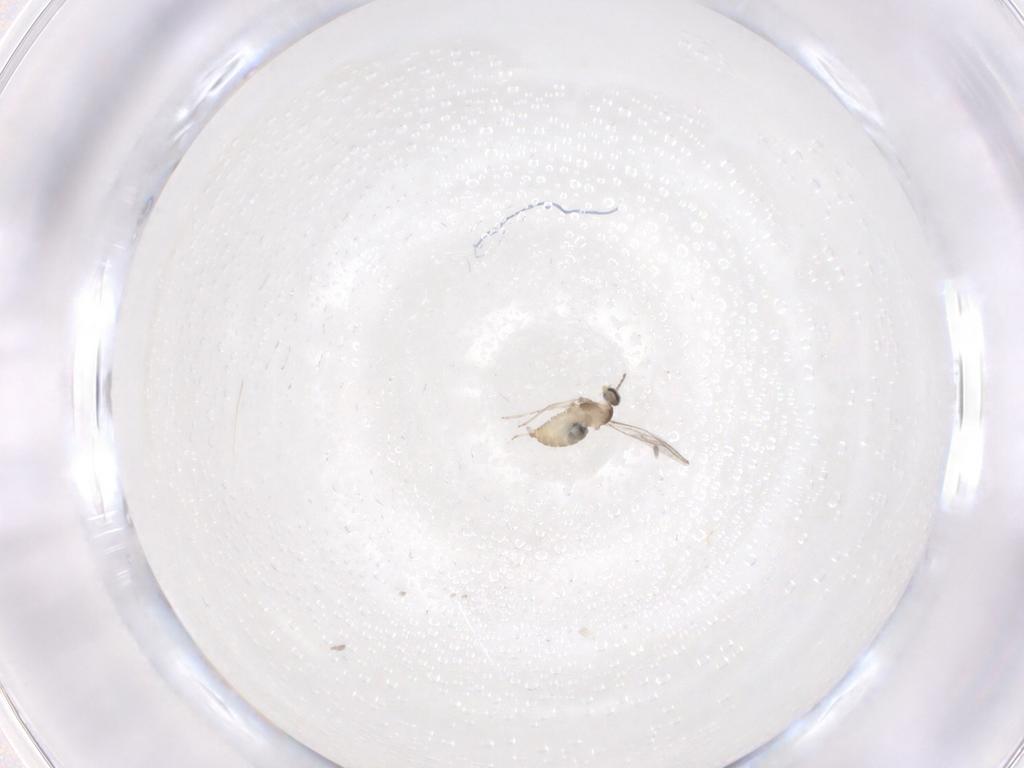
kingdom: Animalia
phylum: Arthropoda
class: Insecta
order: Diptera
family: Cecidomyiidae
